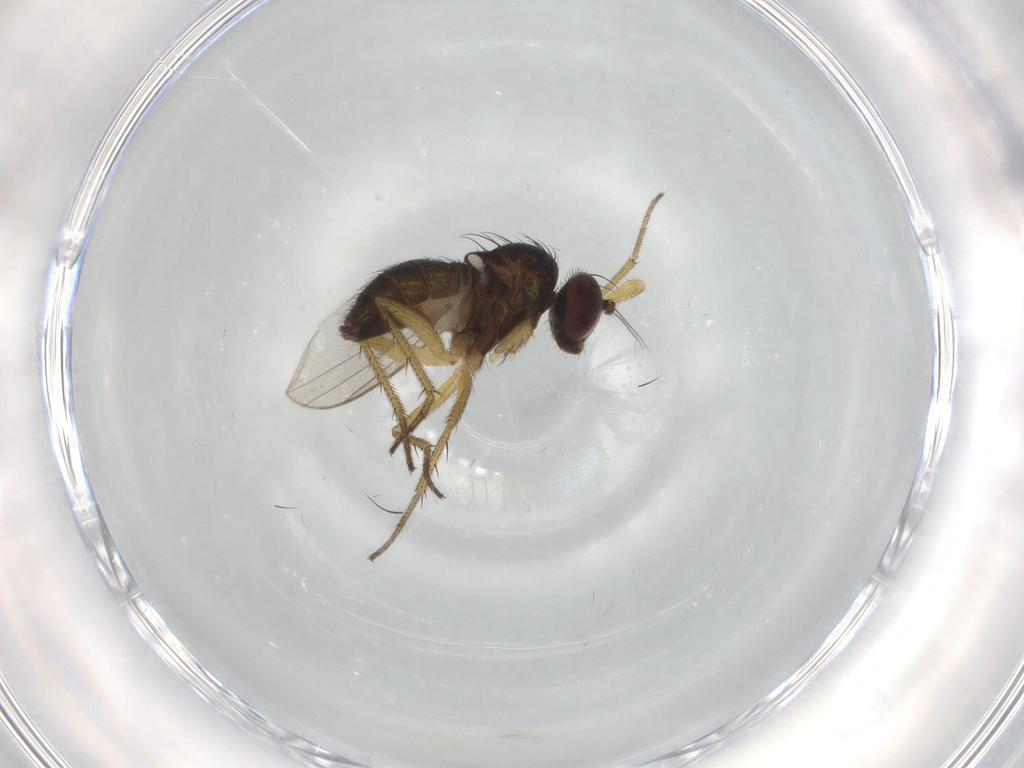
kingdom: Animalia
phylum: Arthropoda
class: Insecta
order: Diptera
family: Dolichopodidae
